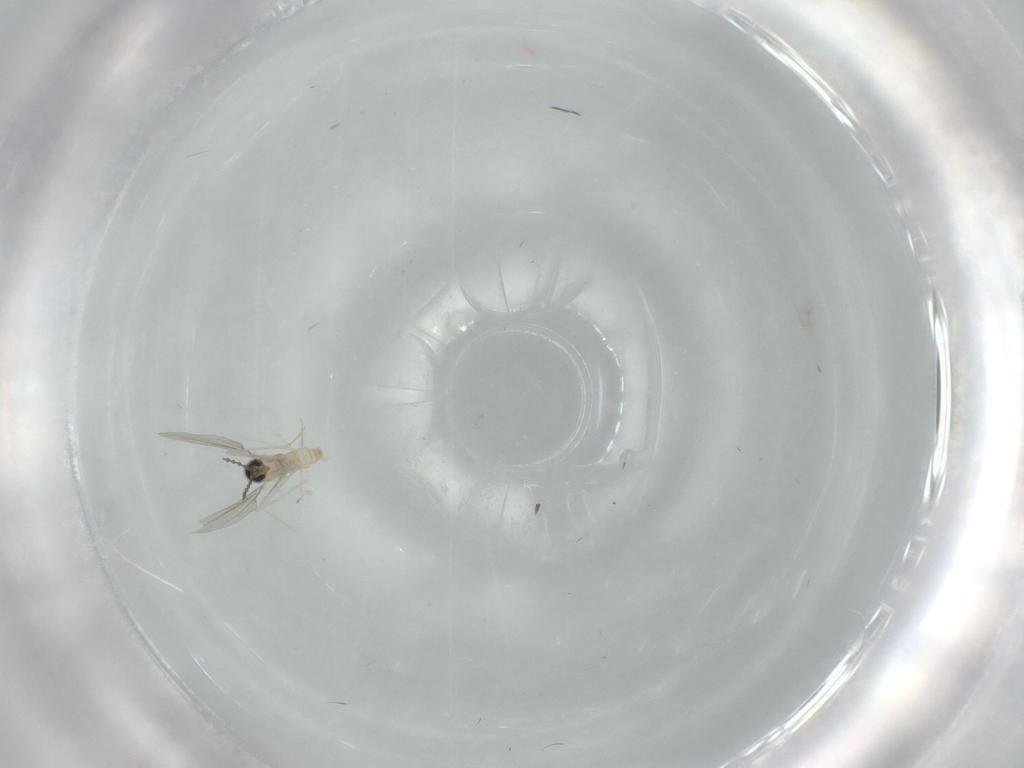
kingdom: Animalia
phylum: Arthropoda
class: Insecta
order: Diptera
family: Cecidomyiidae
